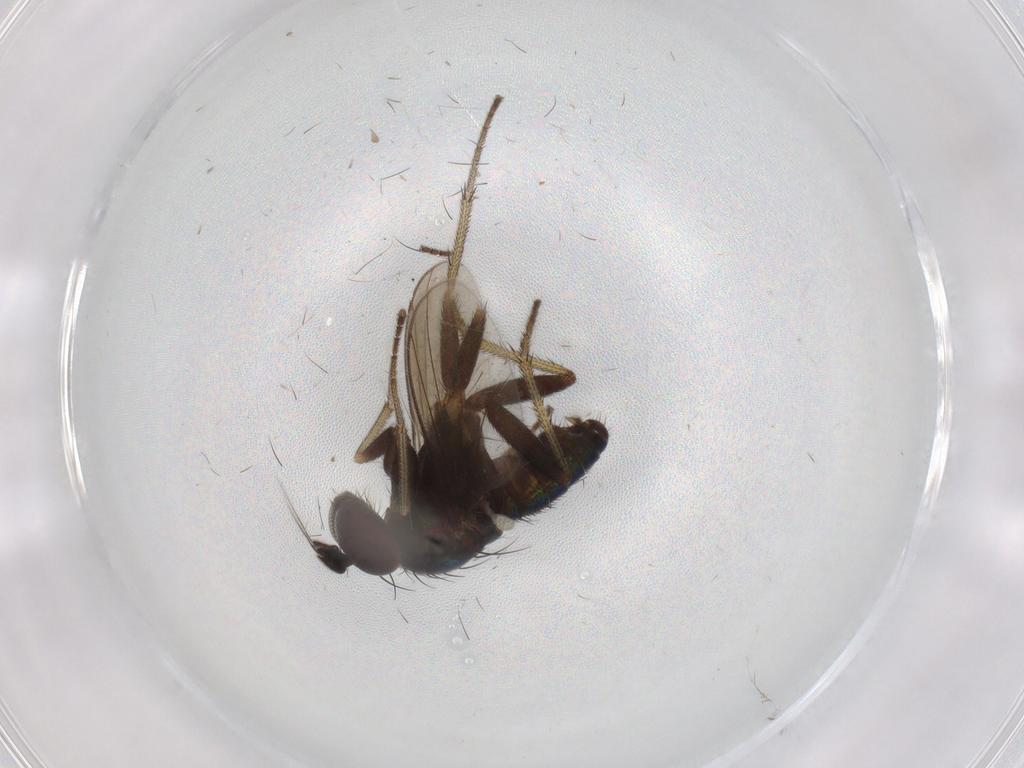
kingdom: Animalia
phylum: Arthropoda
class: Insecta
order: Diptera
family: Dolichopodidae
